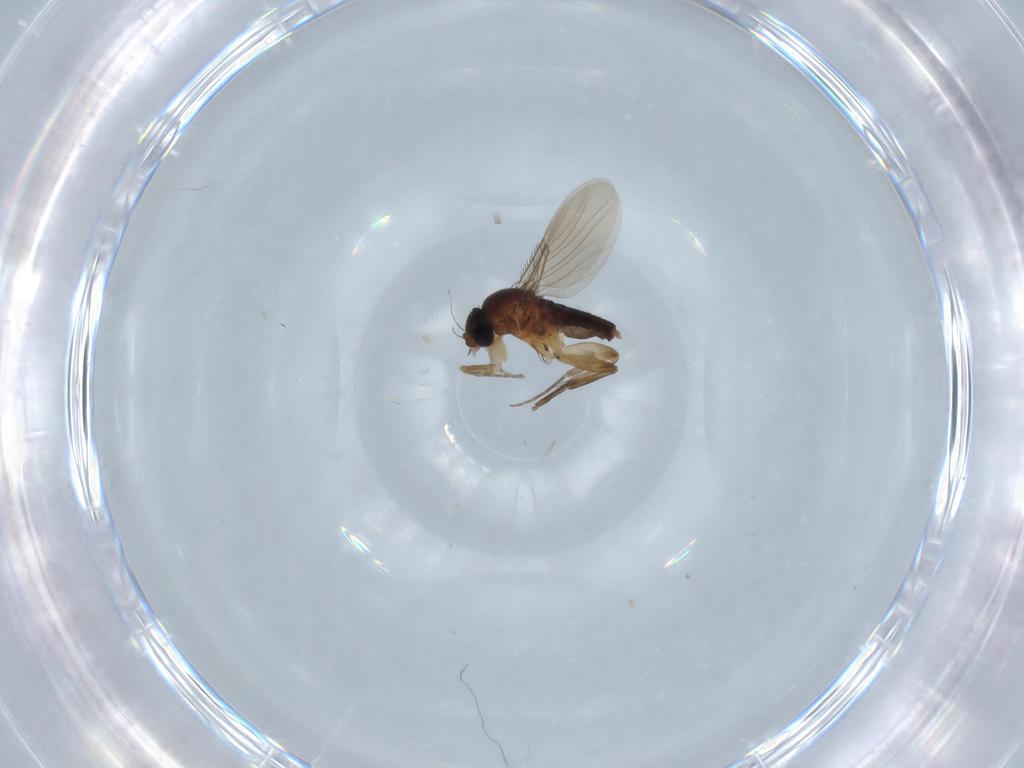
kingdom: Animalia
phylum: Arthropoda
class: Insecta
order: Diptera
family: Phoridae
